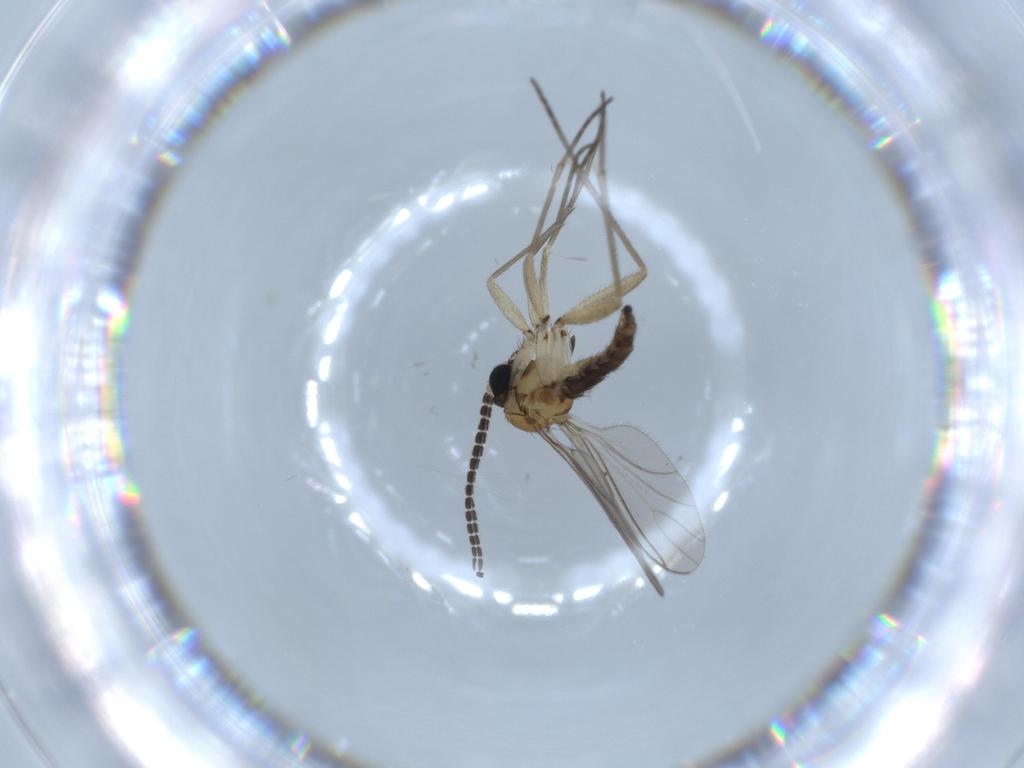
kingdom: Animalia
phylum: Arthropoda
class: Insecta
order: Diptera
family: Sciaridae
